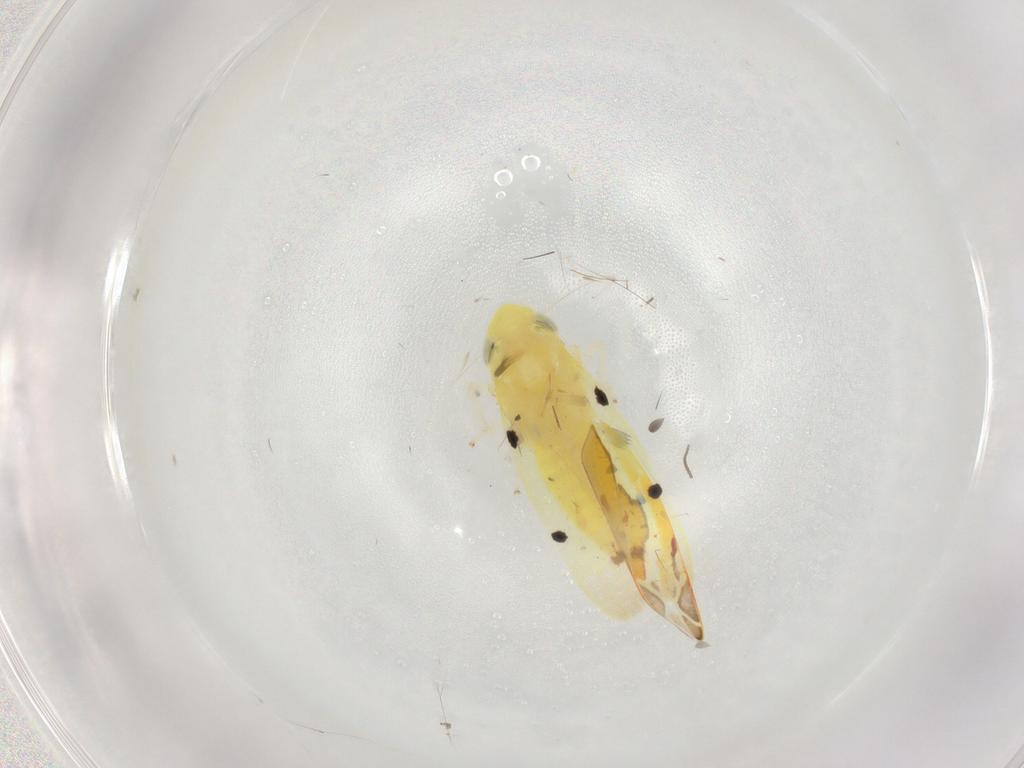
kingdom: Animalia
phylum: Arthropoda
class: Insecta
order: Hemiptera
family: Cicadellidae
